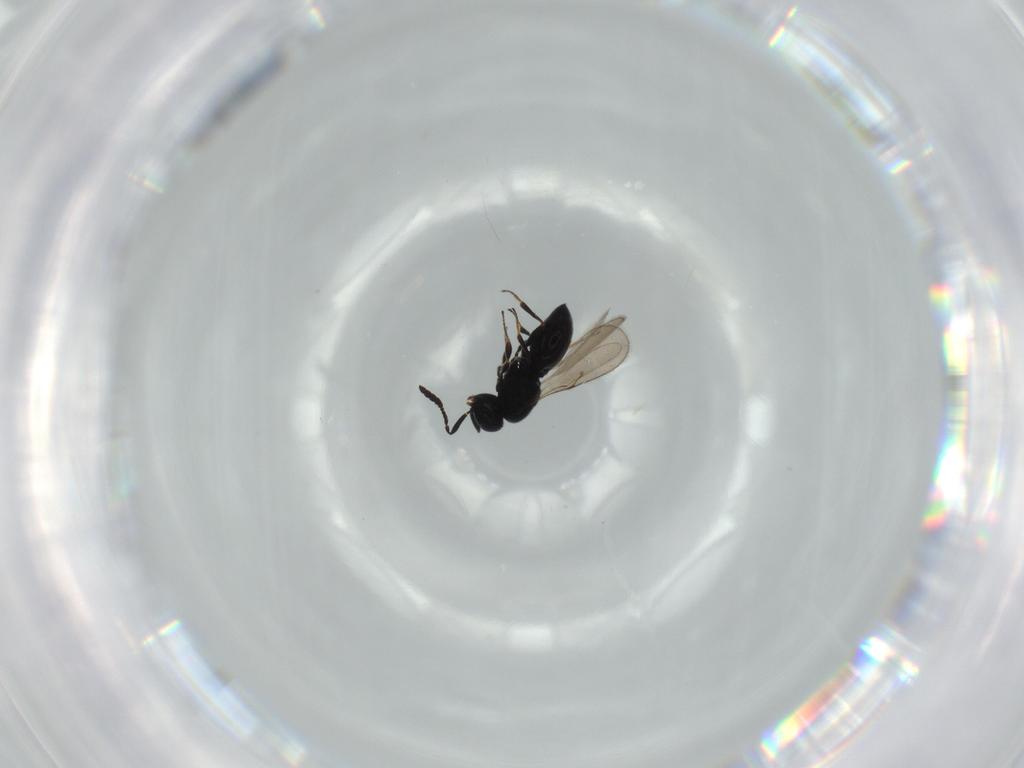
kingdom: Animalia
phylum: Arthropoda
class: Insecta
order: Hymenoptera
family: Scelionidae
